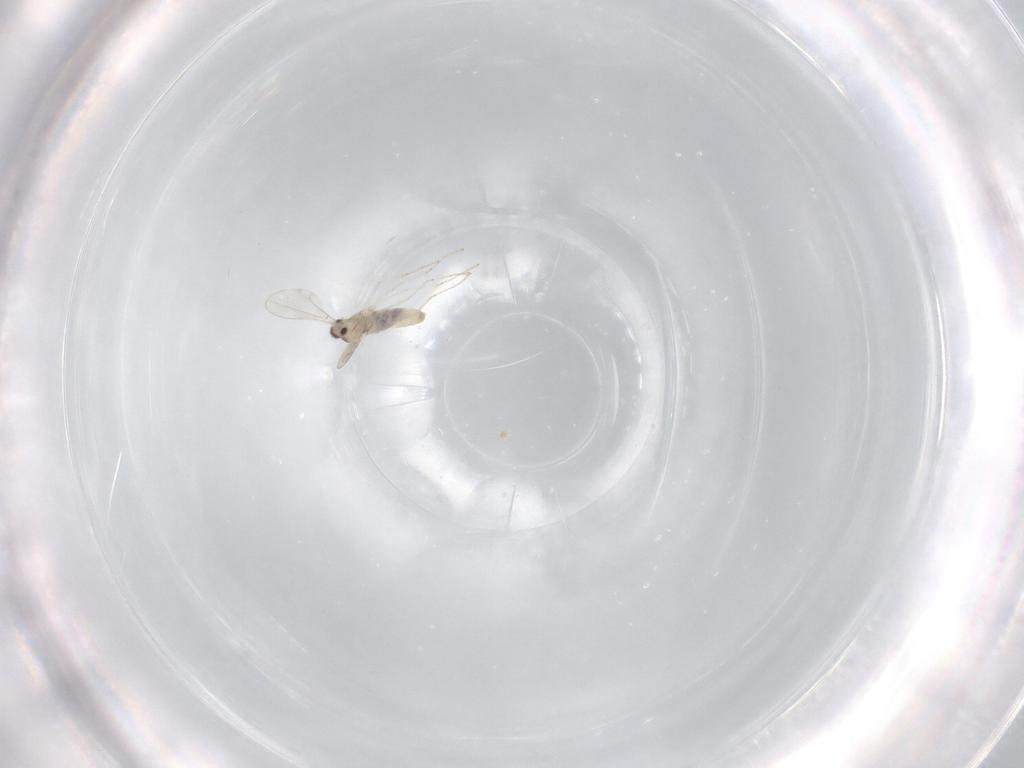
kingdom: Animalia
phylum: Arthropoda
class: Insecta
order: Diptera
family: Cecidomyiidae
